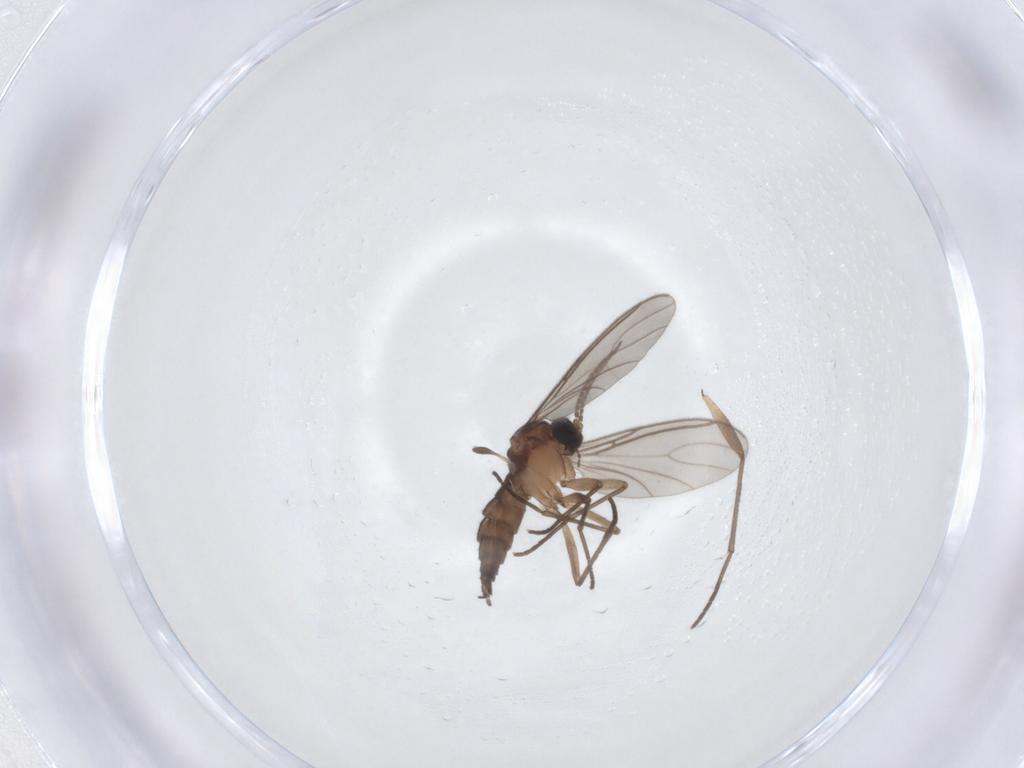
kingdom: Animalia
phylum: Arthropoda
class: Insecta
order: Diptera
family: Sciaridae
